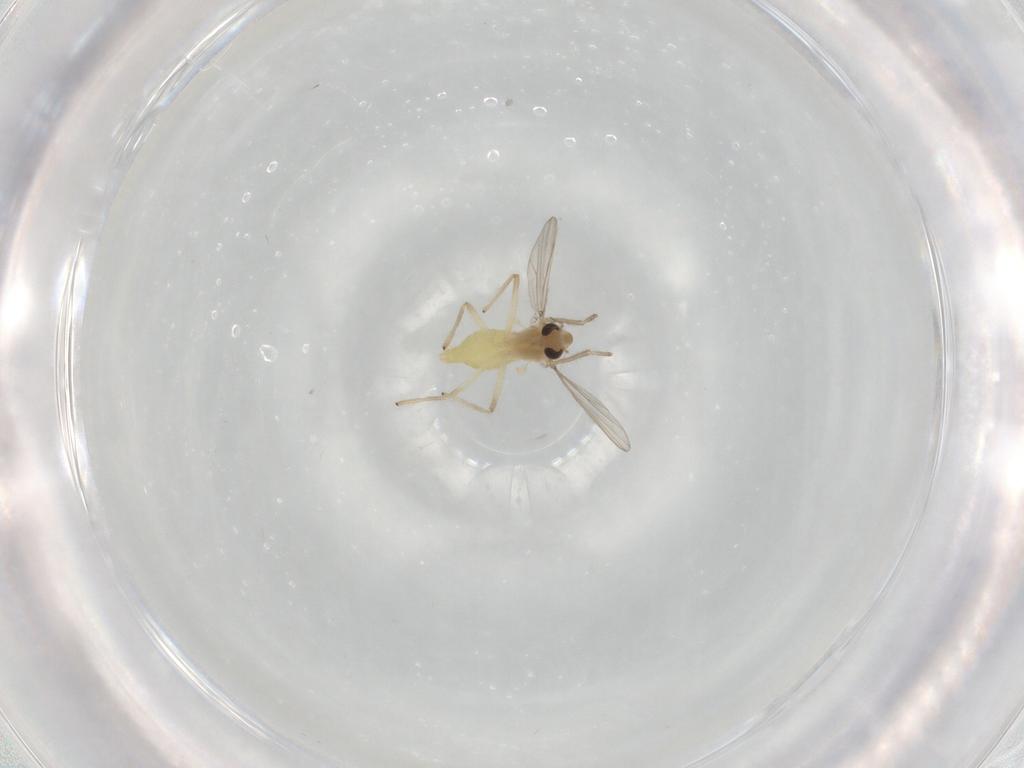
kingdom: Animalia
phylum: Arthropoda
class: Insecta
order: Diptera
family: Chironomidae
